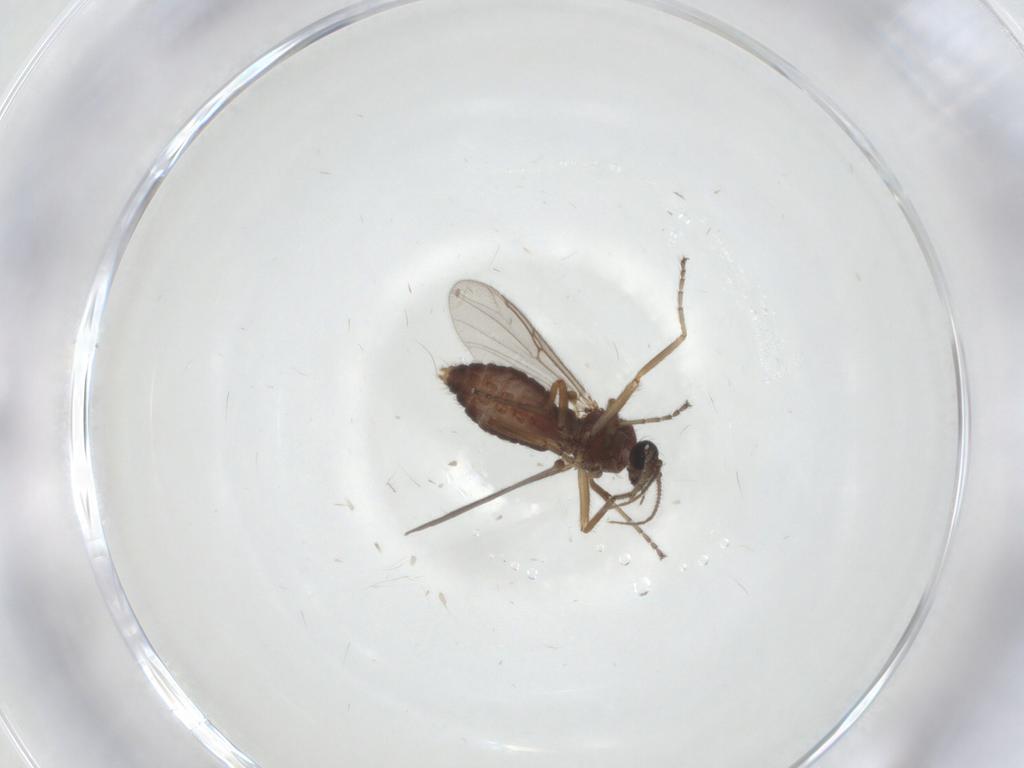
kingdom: Animalia
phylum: Arthropoda
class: Insecta
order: Diptera
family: Ceratopogonidae
